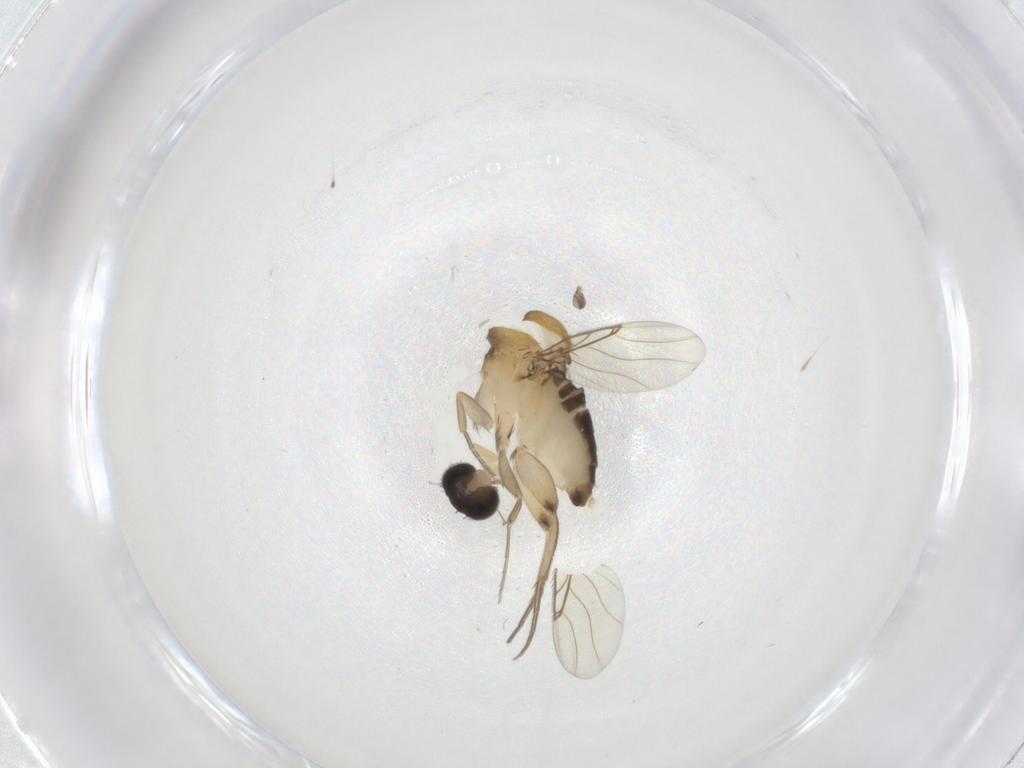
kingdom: Animalia
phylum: Arthropoda
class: Insecta
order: Diptera
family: Phoridae
